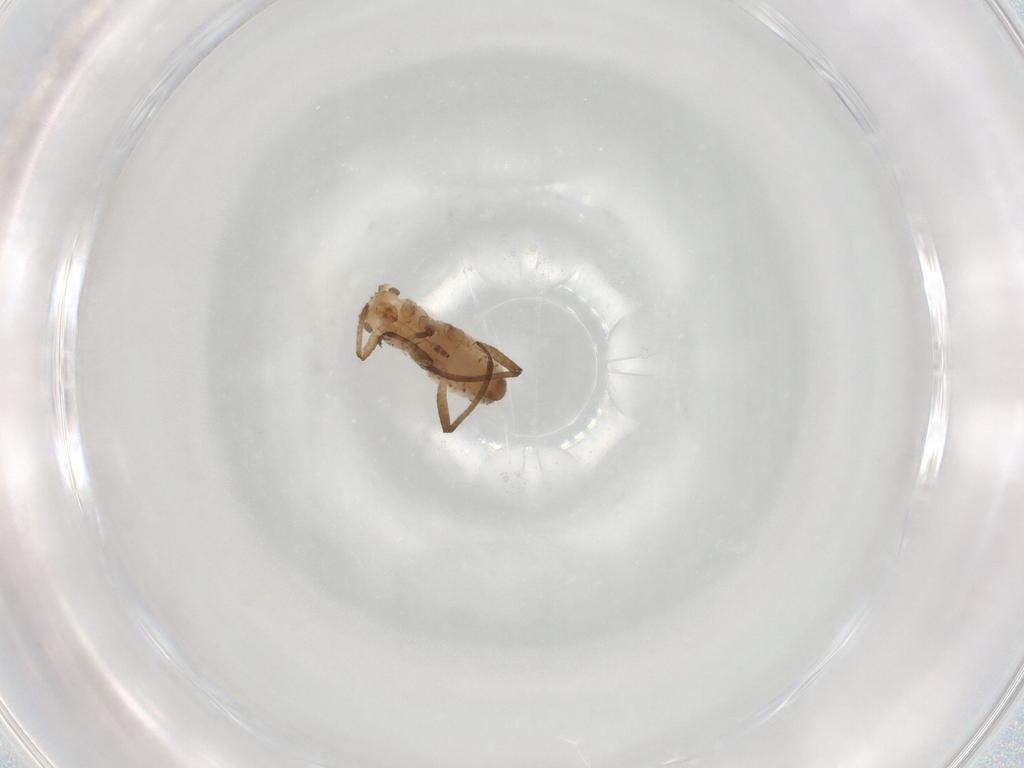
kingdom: Animalia
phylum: Arthropoda
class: Insecta
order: Hemiptera
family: Aphididae
